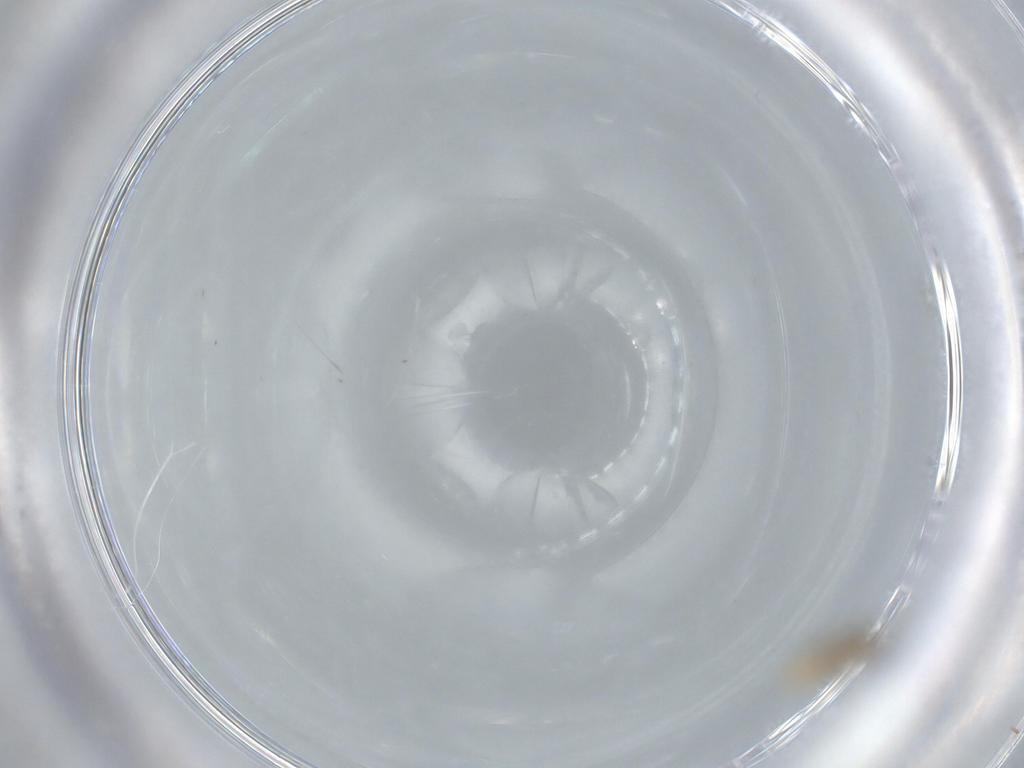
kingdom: Animalia
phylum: Arthropoda
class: Insecta
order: Diptera
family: Cecidomyiidae
